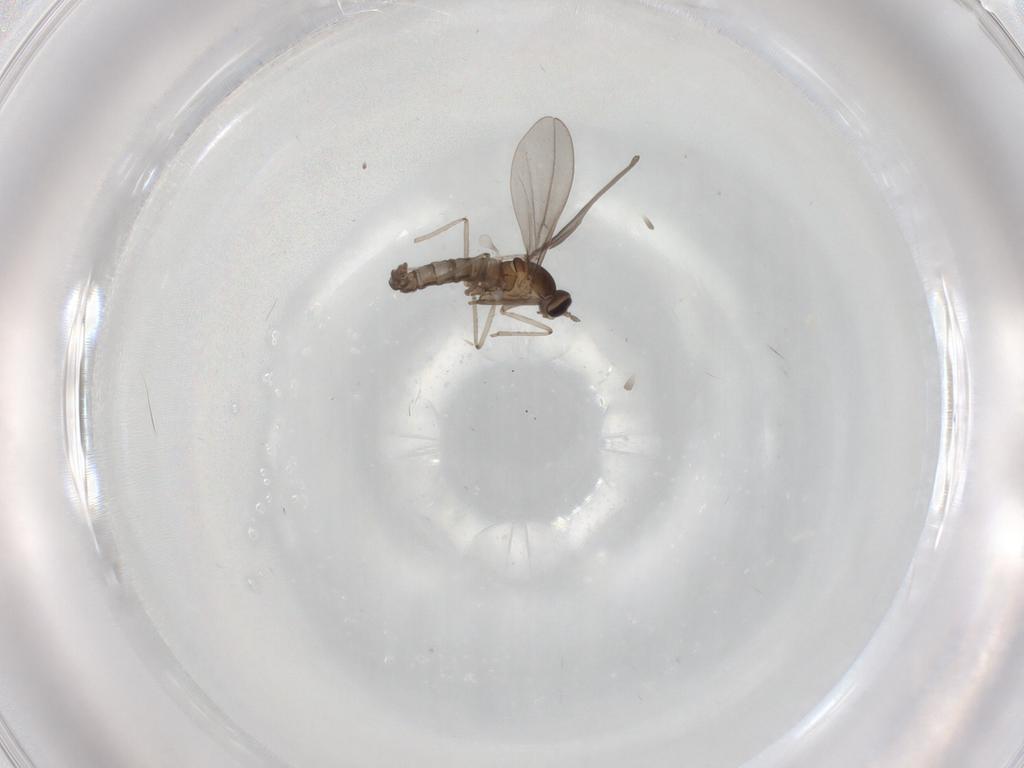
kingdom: Animalia
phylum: Arthropoda
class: Insecta
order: Diptera
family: Cecidomyiidae
